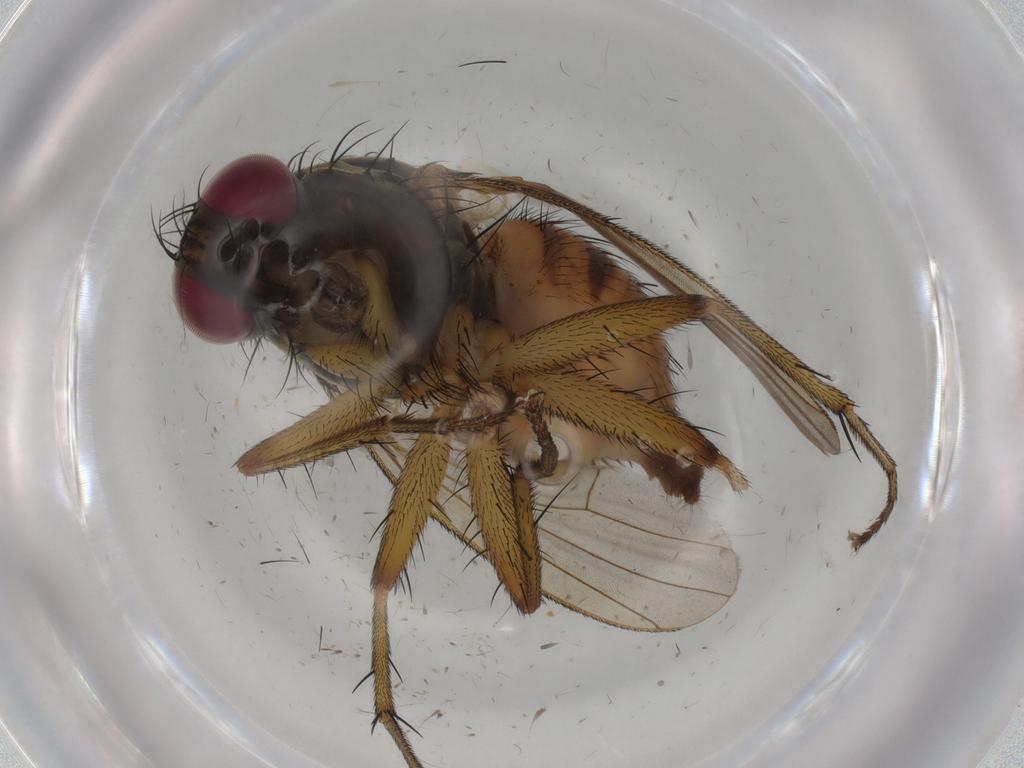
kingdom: Animalia
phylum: Arthropoda
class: Insecta
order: Diptera
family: Muscidae
